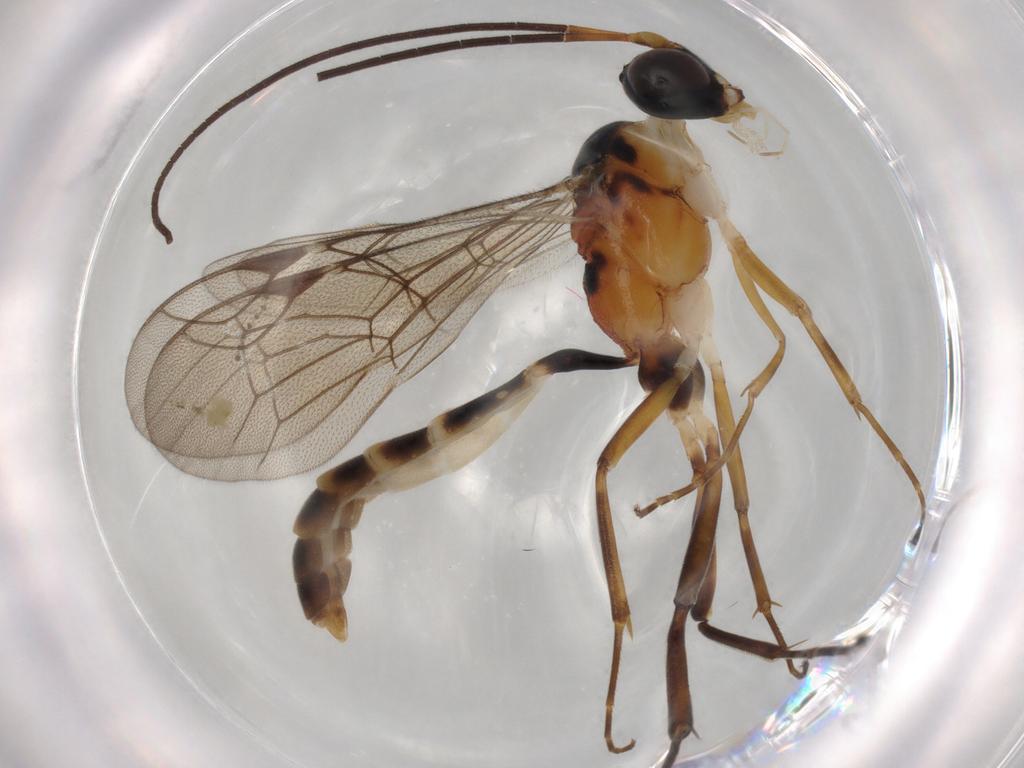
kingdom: Animalia
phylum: Arthropoda
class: Insecta
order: Hymenoptera
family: Ichneumonidae
